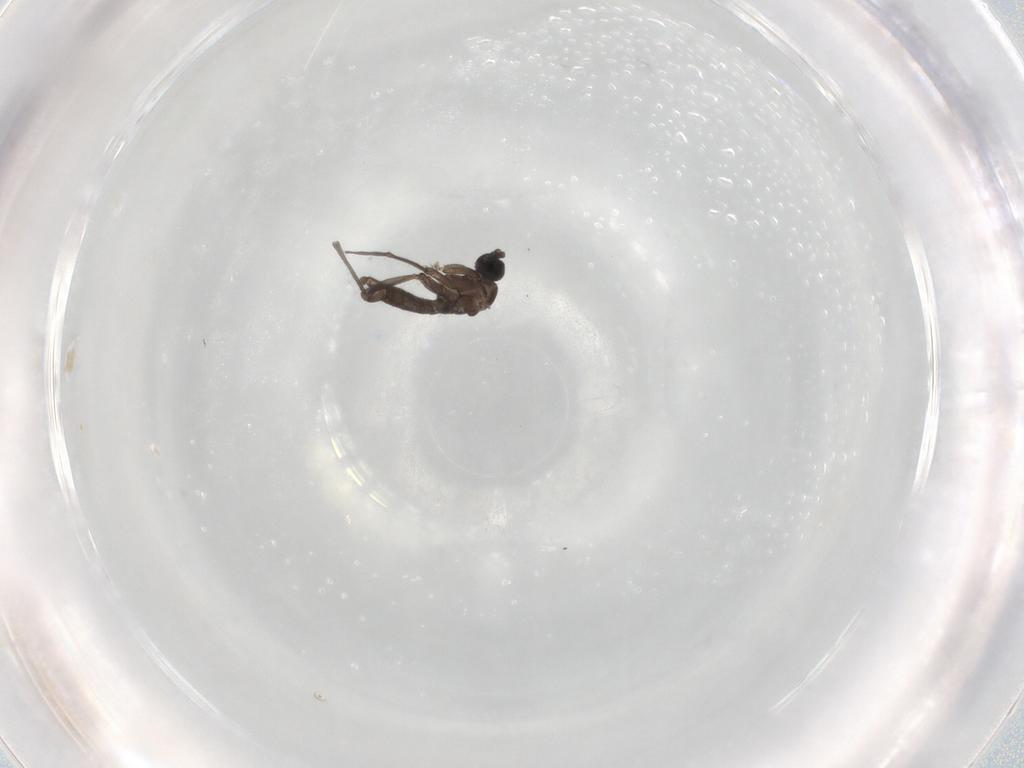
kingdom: Animalia
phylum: Arthropoda
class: Insecta
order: Diptera
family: Sciaridae
